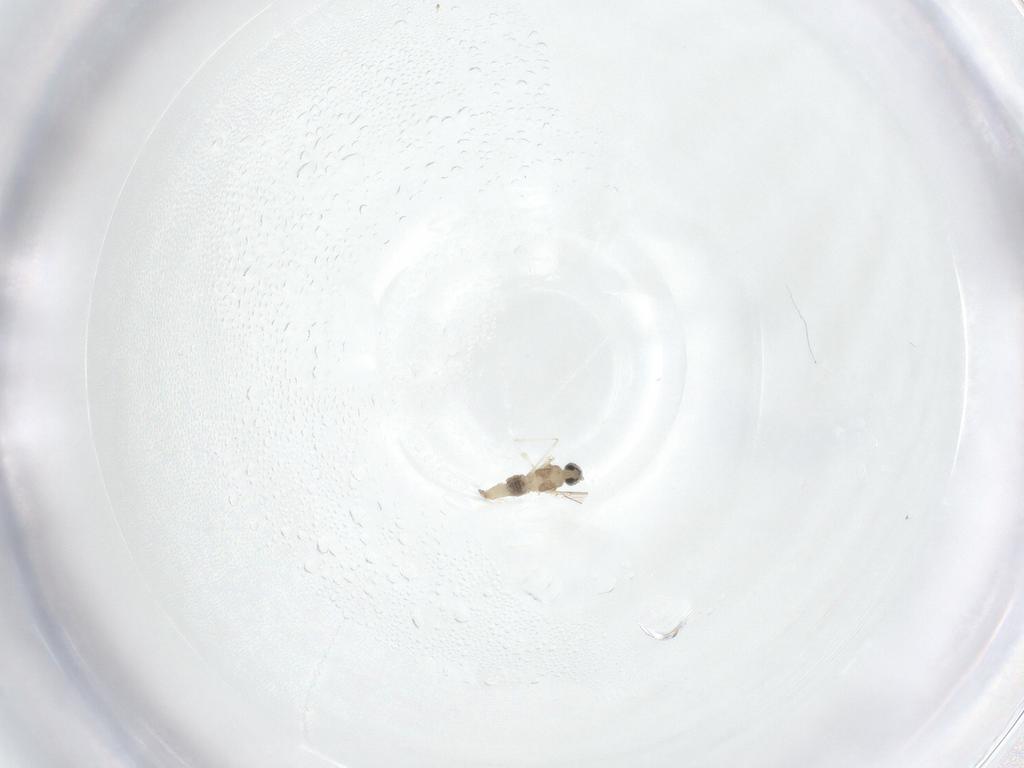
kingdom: Animalia
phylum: Arthropoda
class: Insecta
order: Diptera
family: Cecidomyiidae
